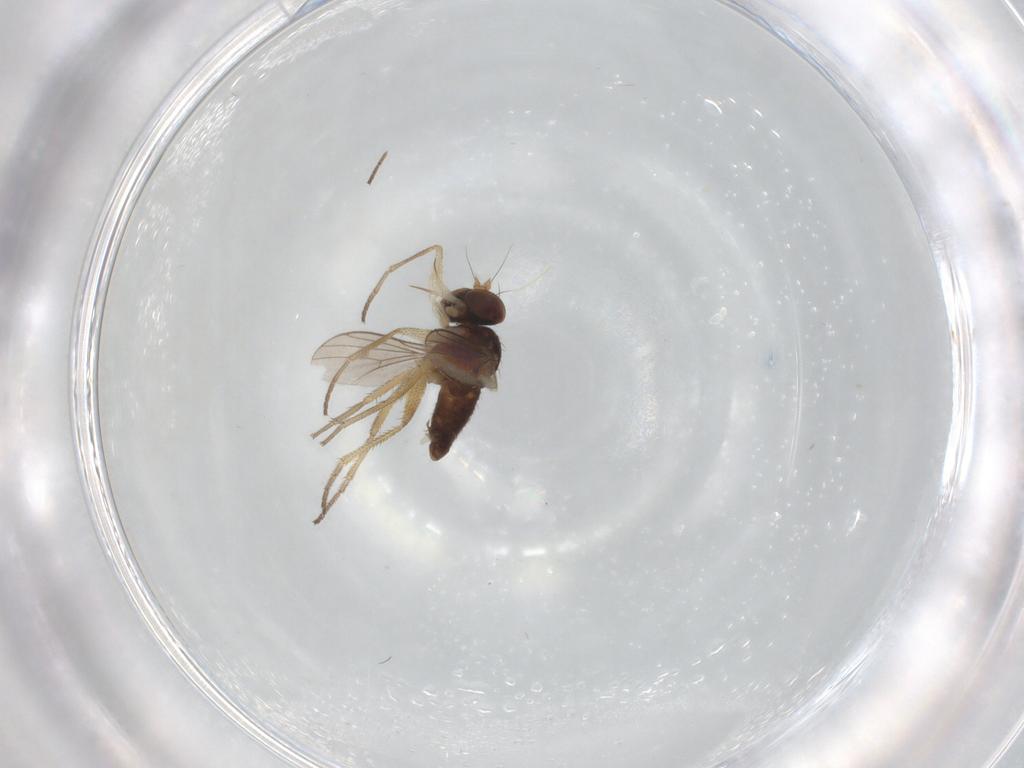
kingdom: Animalia
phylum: Arthropoda
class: Insecta
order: Diptera
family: Dolichopodidae
